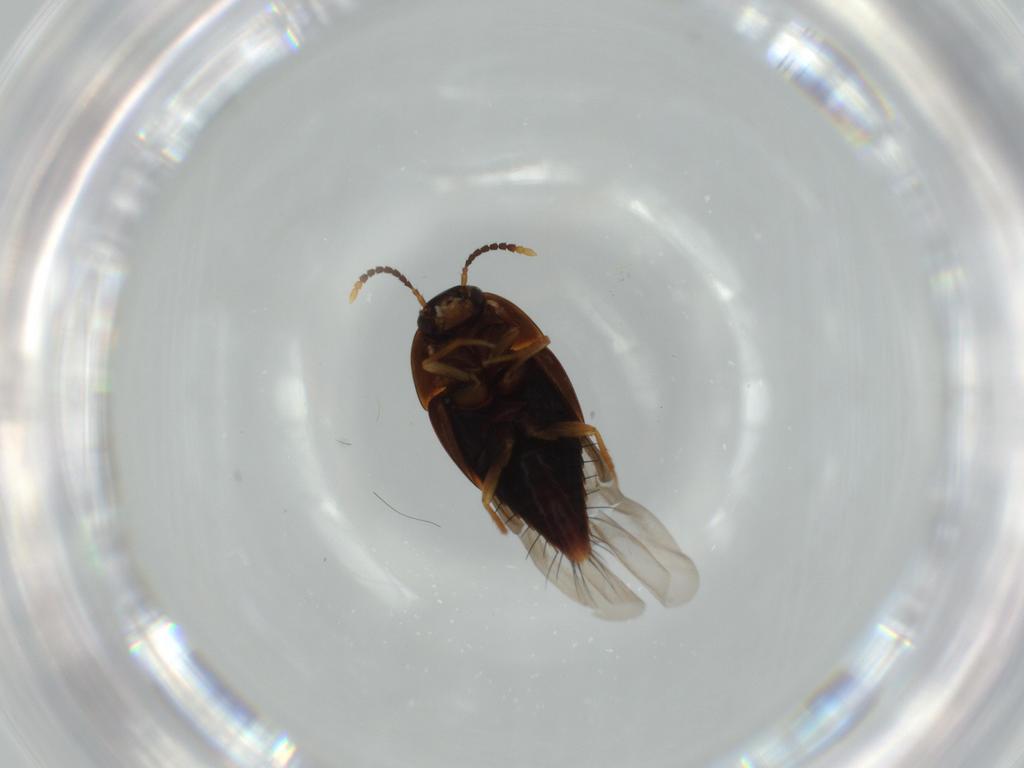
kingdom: Animalia
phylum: Arthropoda
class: Insecta
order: Coleoptera
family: Staphylinidae
